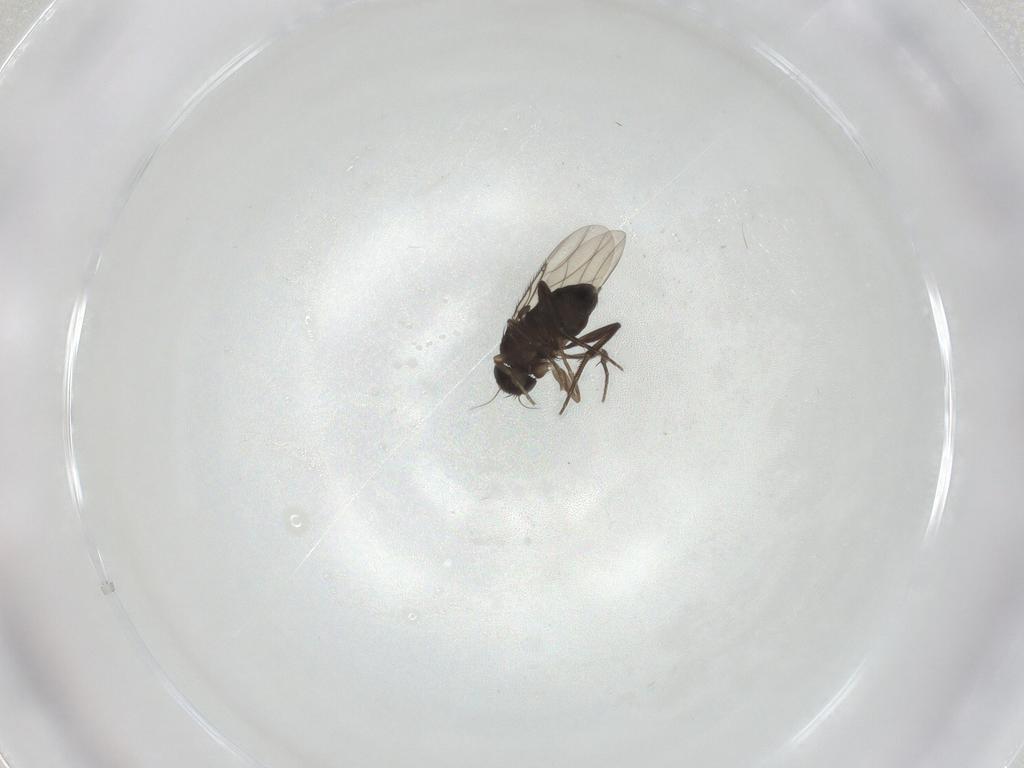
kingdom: Animalia
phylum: Arthropoda
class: Insecta
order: Diptera
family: Phoridae
